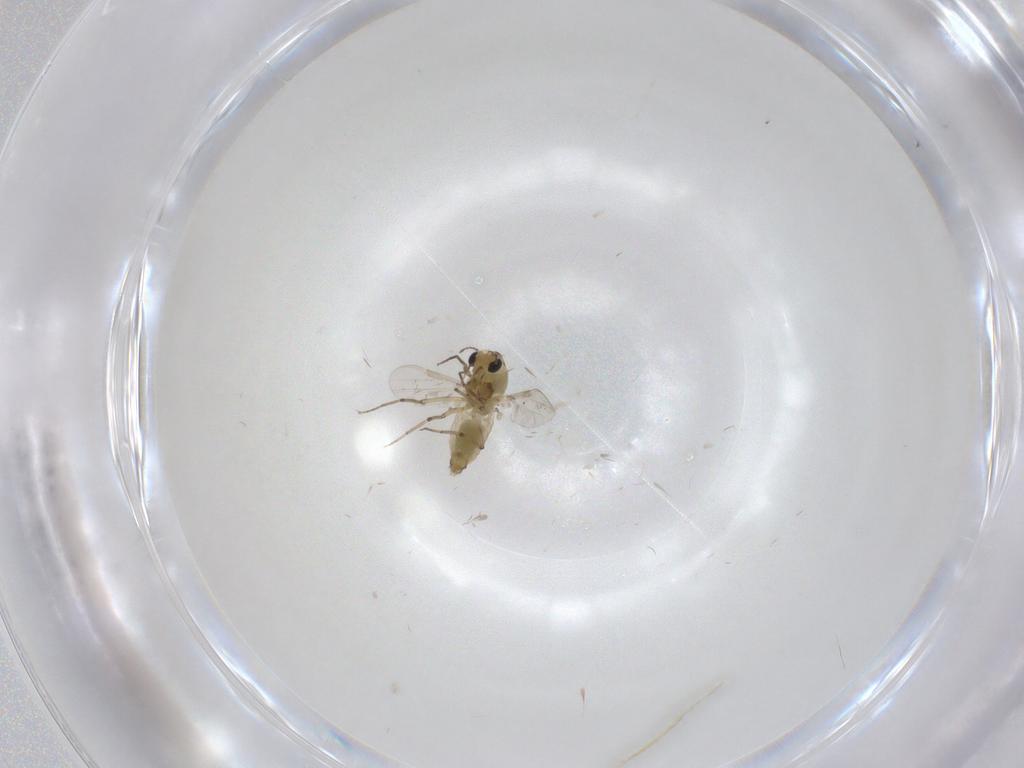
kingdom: Animalia
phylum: Arthropoda
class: Insecta
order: Diptera
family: Chironomidae
